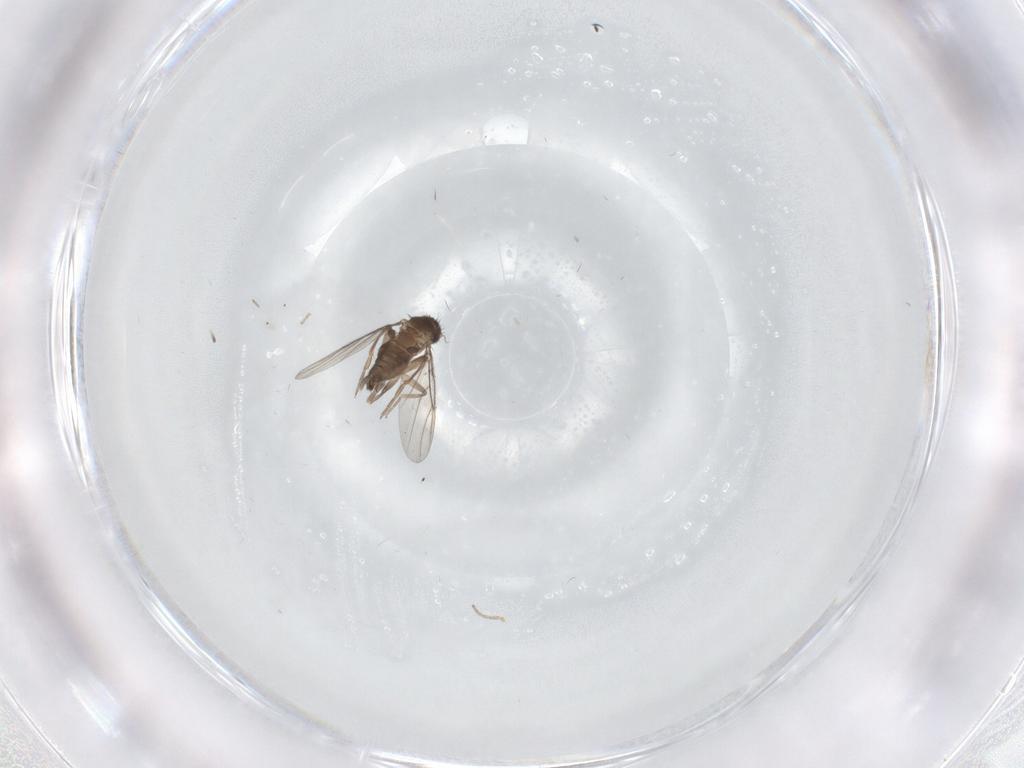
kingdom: Animalia
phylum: Arthropoda
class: Insecta
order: Diptera
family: Phoridae
